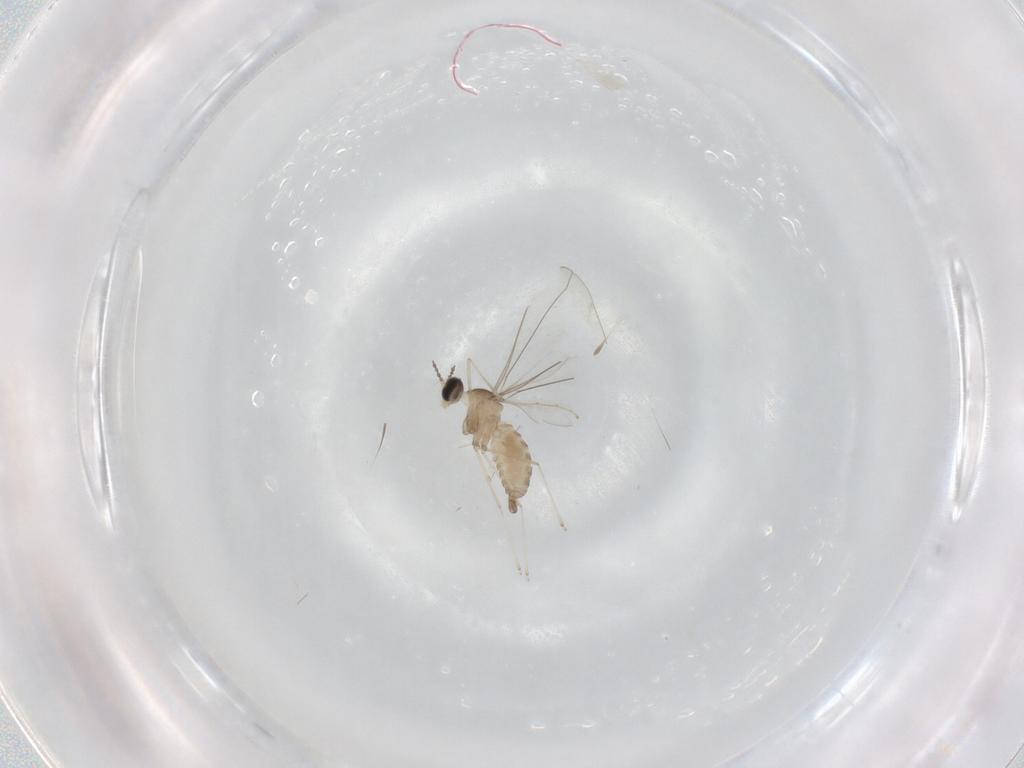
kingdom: Animalia
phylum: Arthropoda
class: Insecta
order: Diptera
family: Cecidomyiidae
